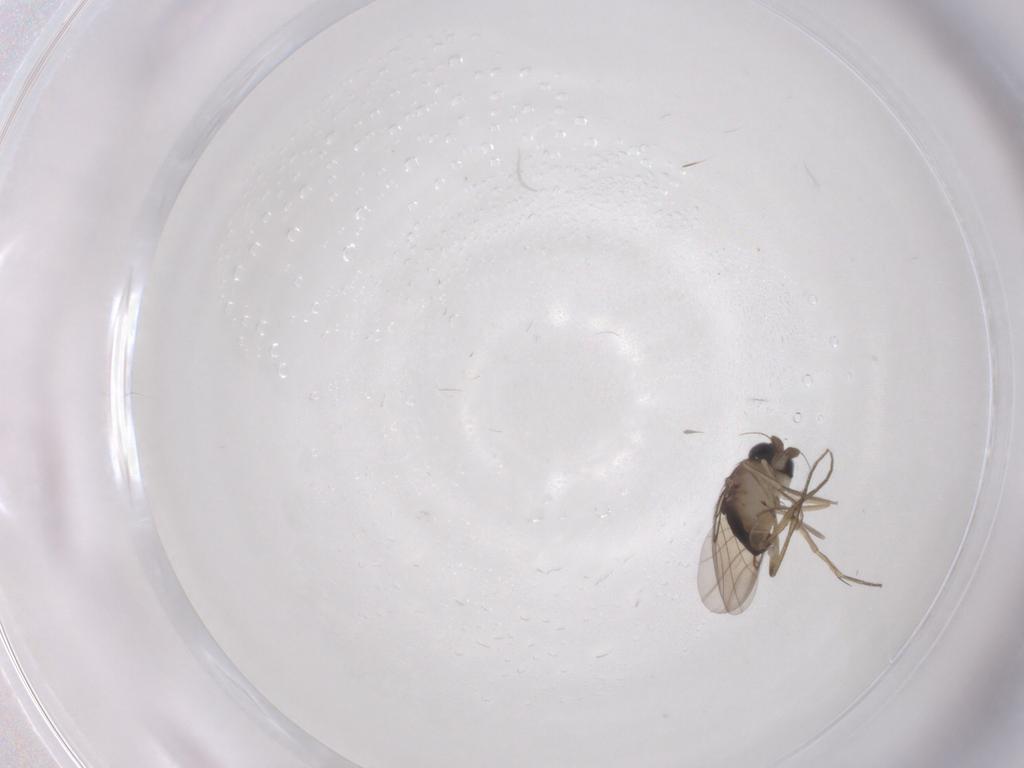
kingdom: Animalia
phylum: Arthropoda
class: Insecta
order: Diptera
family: Phoridae
